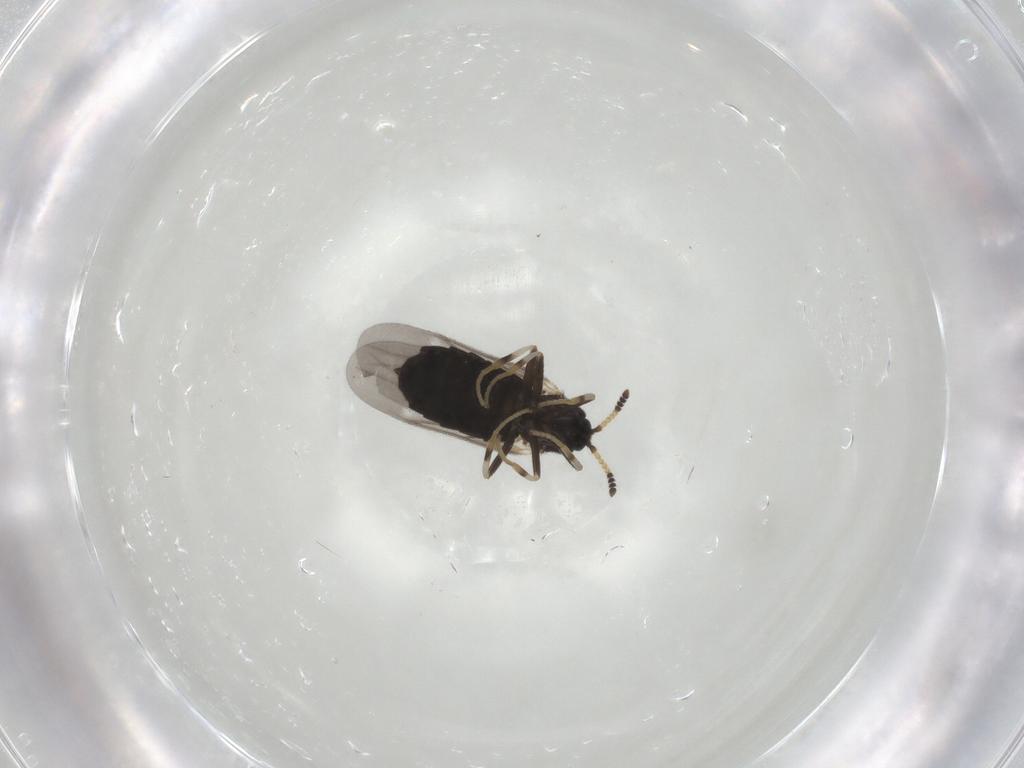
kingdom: Animalia
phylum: Arthropoda
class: Insecta
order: Diptera
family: Scatopsidae
